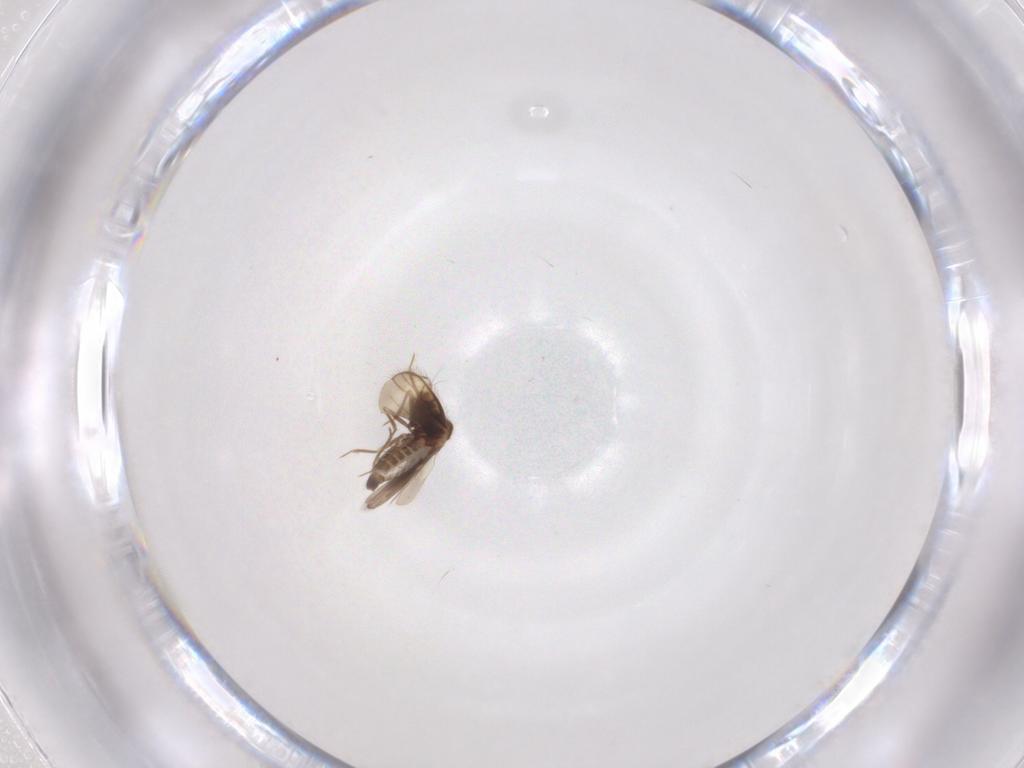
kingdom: Animalia
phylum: Arthropoda
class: Insecta
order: Hemiptera
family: Schizopteridae
